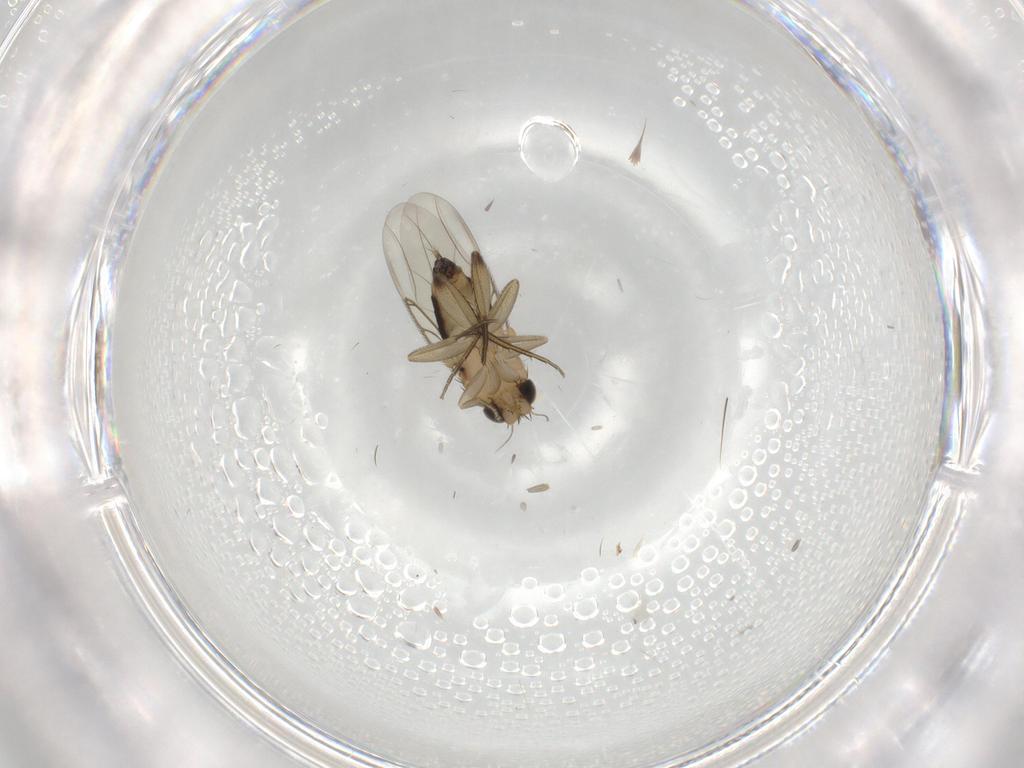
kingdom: Animalia
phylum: Arthropoda
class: Insecta
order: Diptera
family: Phoridae
